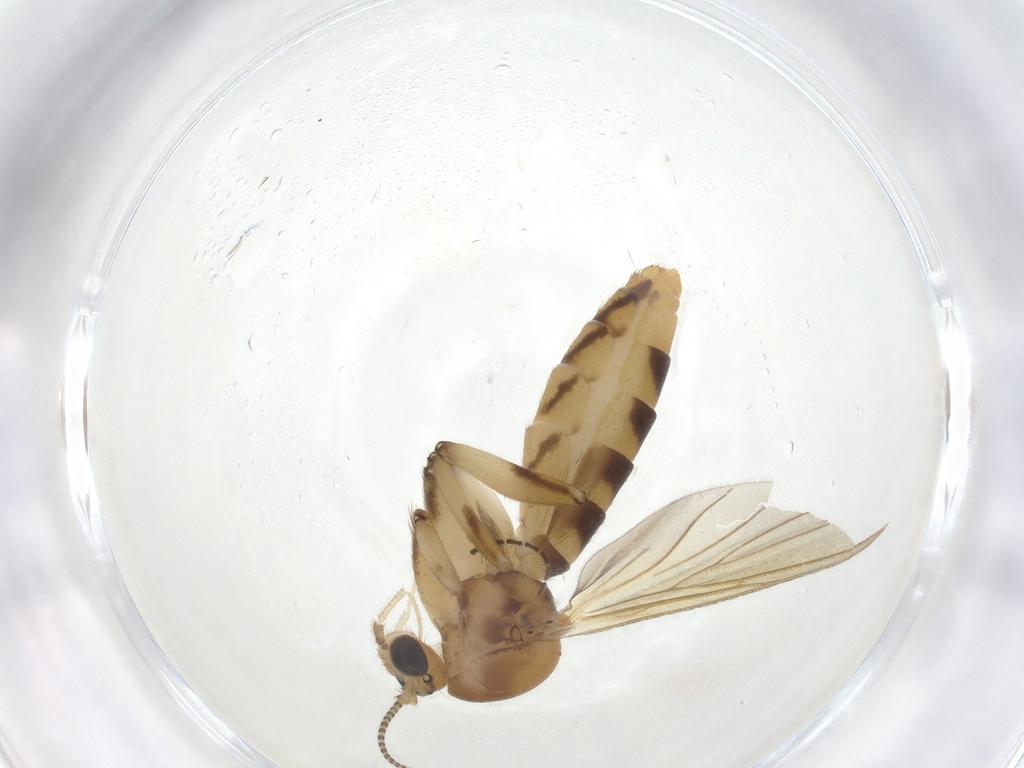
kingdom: Animalia
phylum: Arthropoda
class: Insecta
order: Diptera
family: Mycetophilidae
